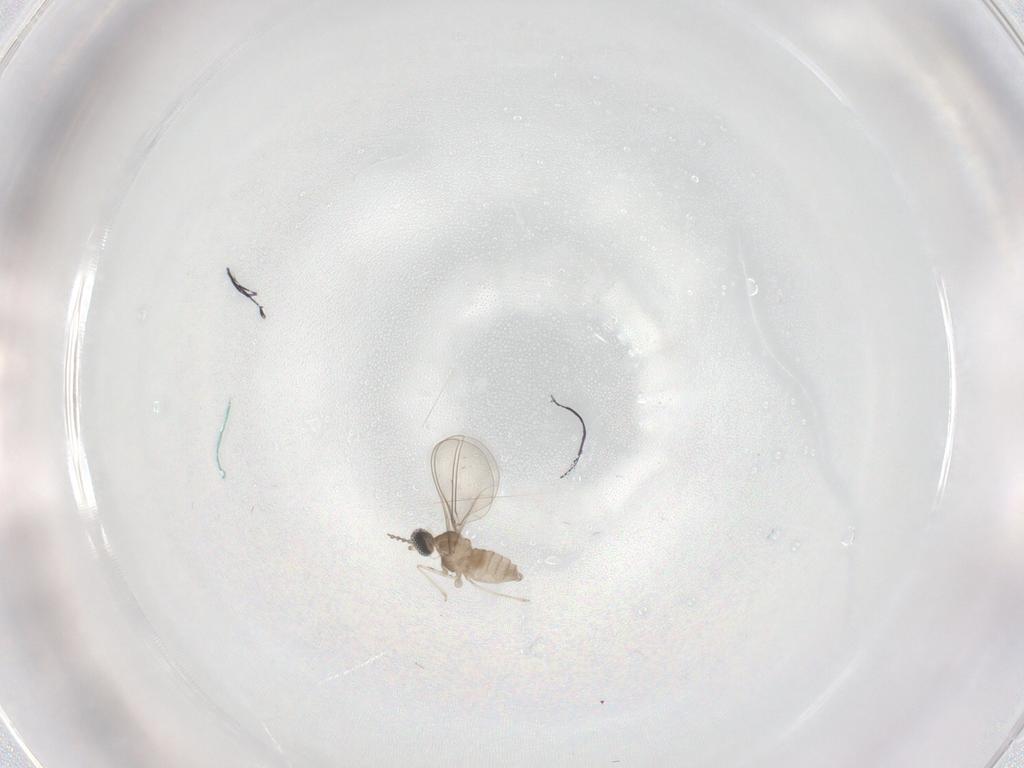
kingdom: Animalia
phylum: Arthropoda
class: Insecta
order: Diptera
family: Cecidomyiidae
